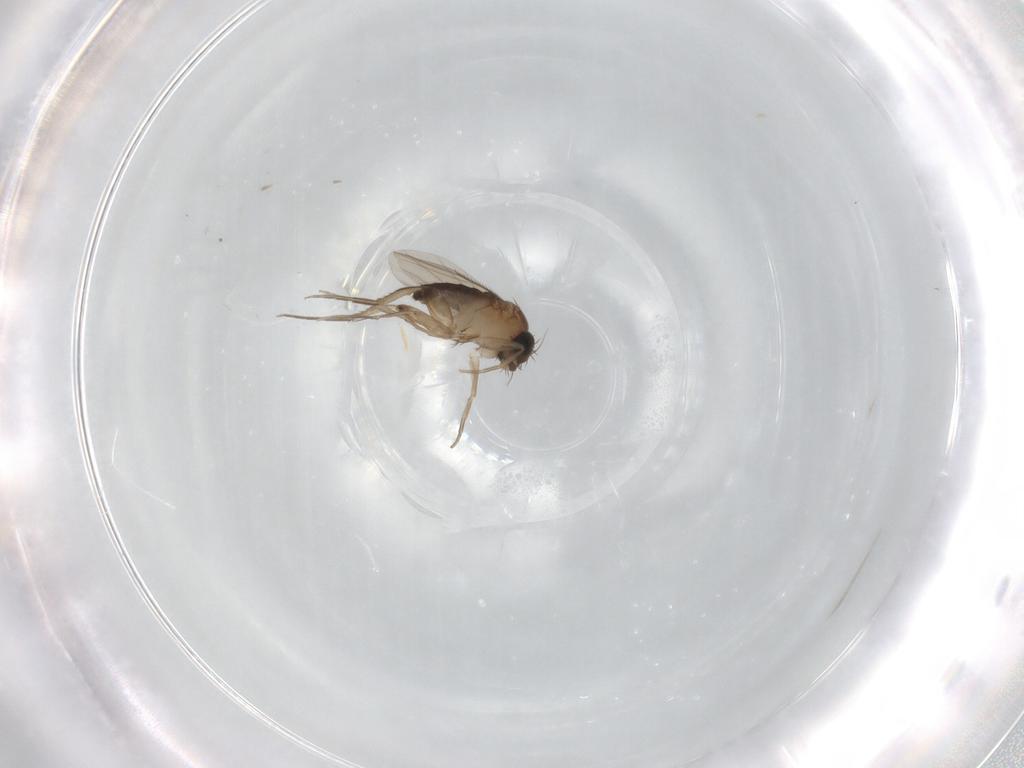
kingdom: Animalia
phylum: Arthropoda
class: Insecta
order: Diptera
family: Phoridae
